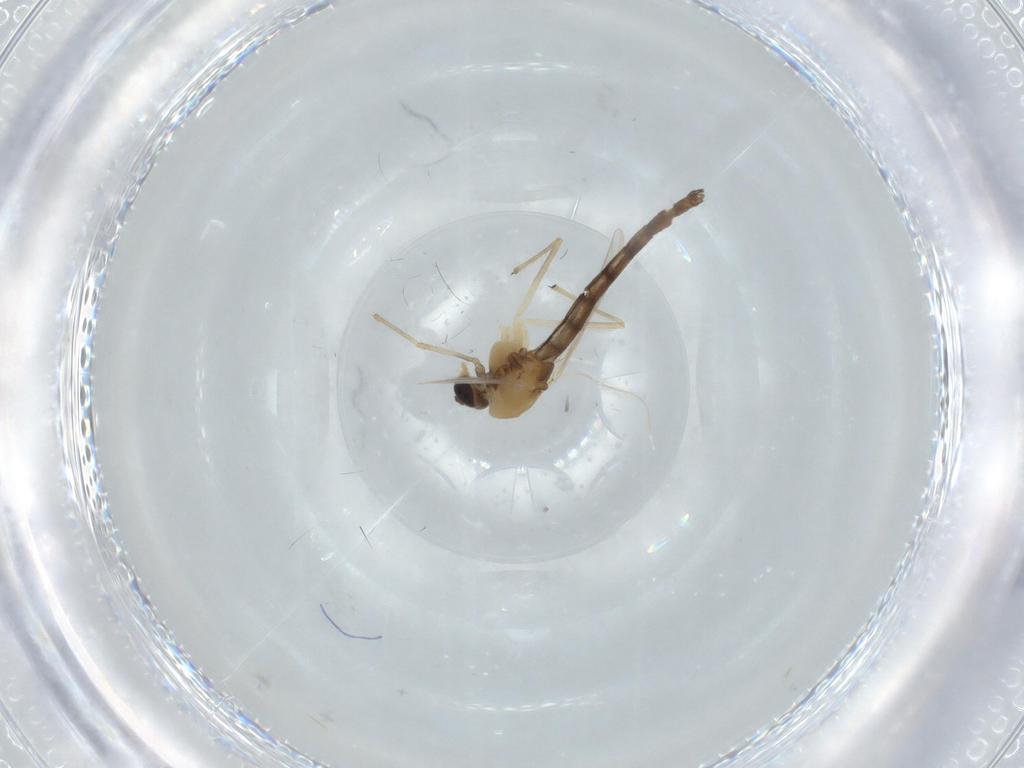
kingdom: Animalia
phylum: Arthropoda
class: Insecta
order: Diptera
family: Chironomidae
